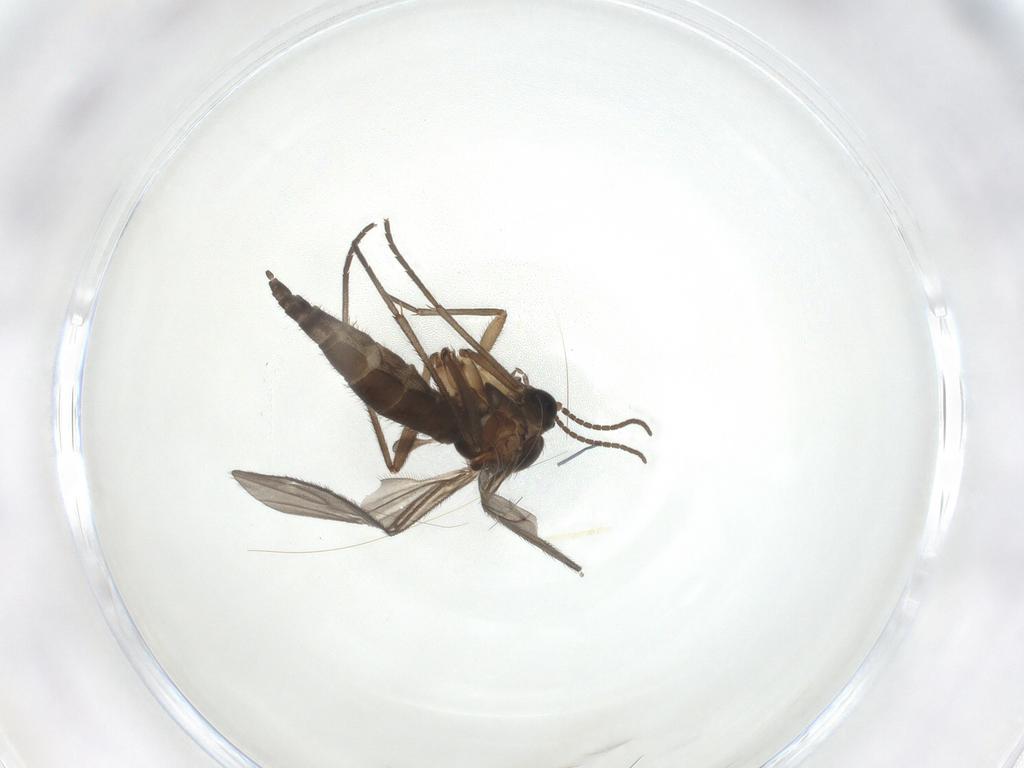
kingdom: Animalia
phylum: Arthropoda
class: Insecta
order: Diptera
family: Sciaridae
